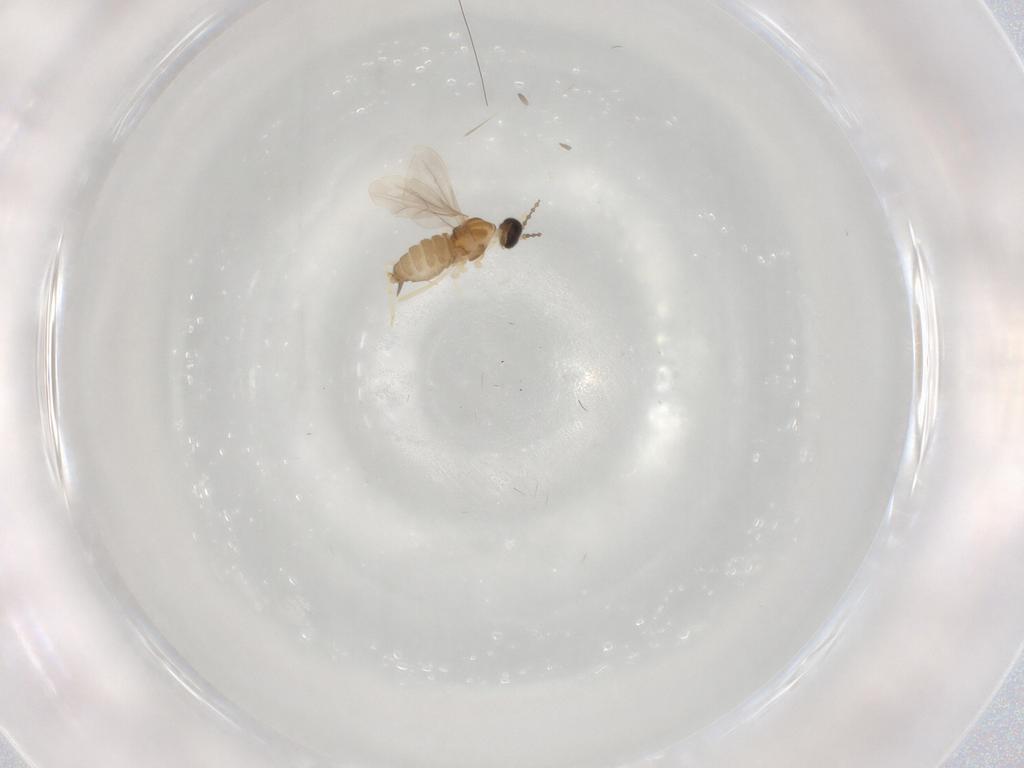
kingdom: Animalia
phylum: Arthropoda
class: Insecta
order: Diptera
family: Cecidomyiidae
